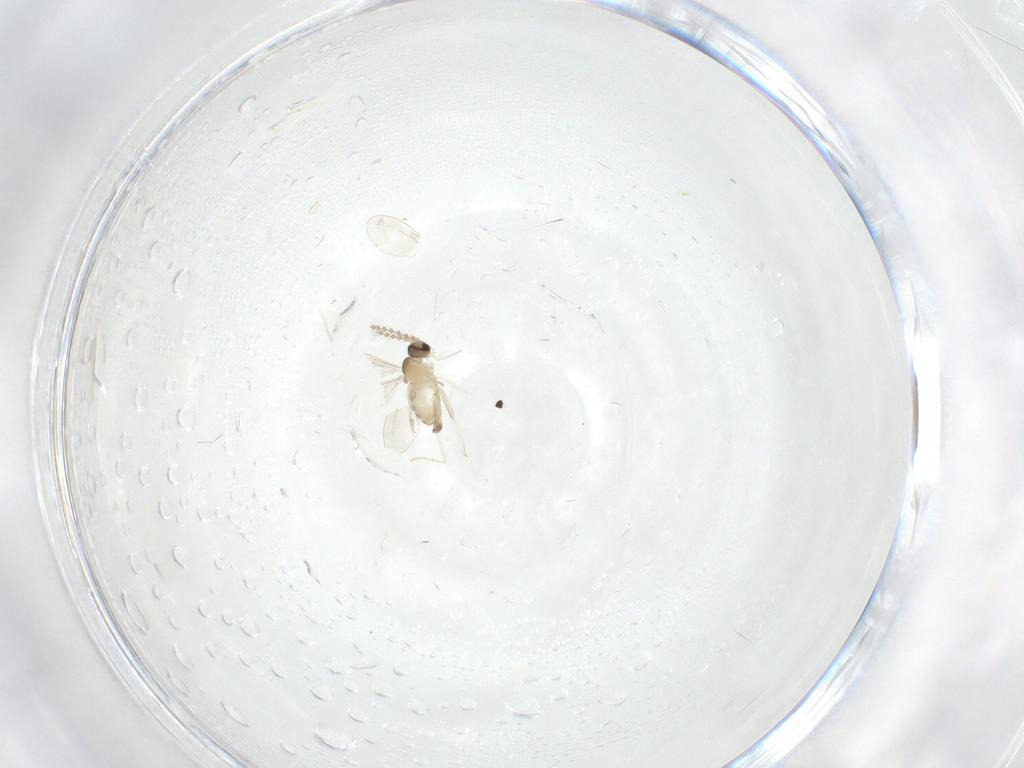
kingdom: Animalia
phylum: Arthropoda
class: Insecta
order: Diptera
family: Cecidomyiidae
